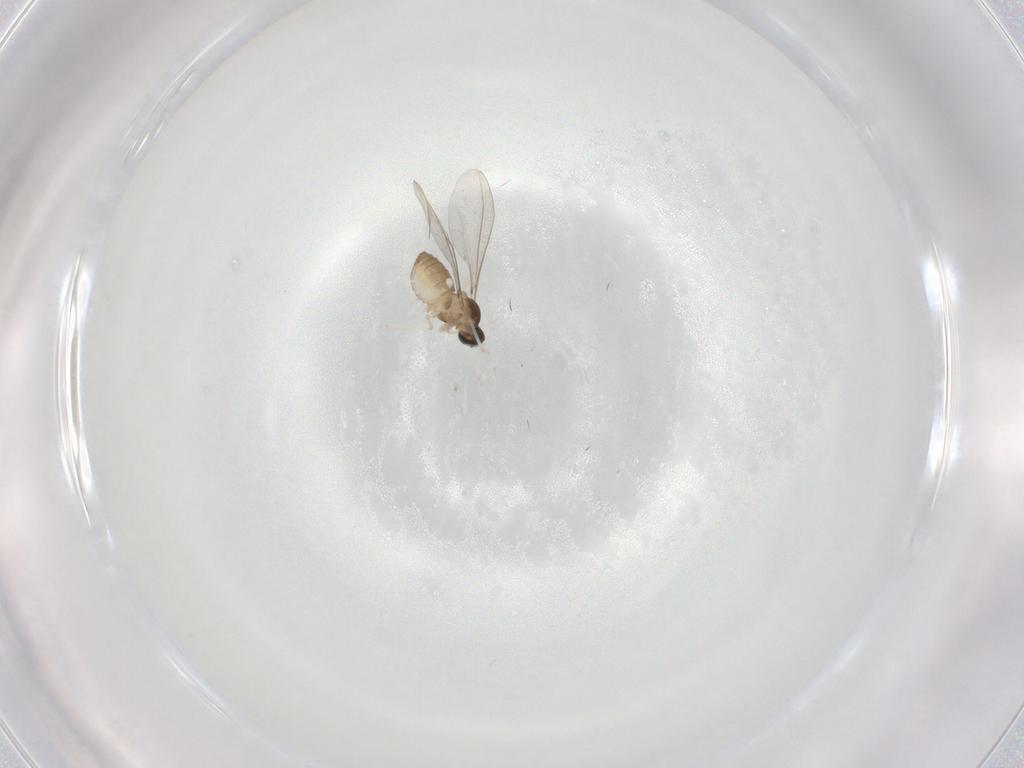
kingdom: Animalia
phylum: Arthropoda
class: Insecta
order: Diptera
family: Cecidomyiidae
